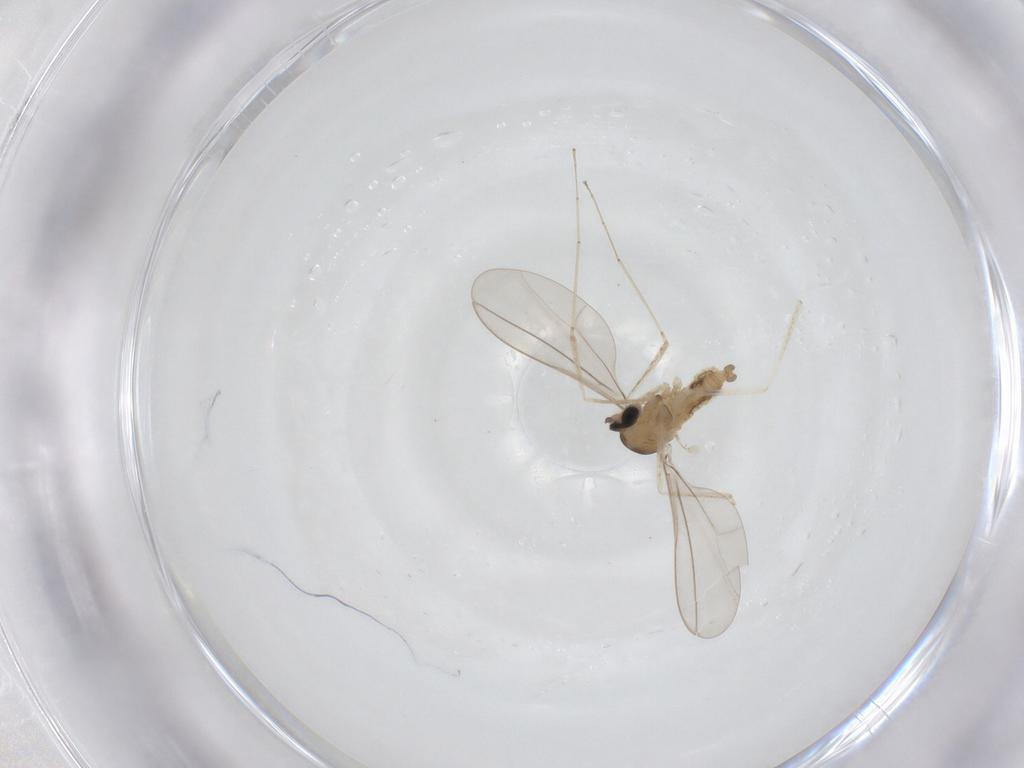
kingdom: Animalia
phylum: Arthropoda
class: Insecta
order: Diptera
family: Cecidomyiidae
